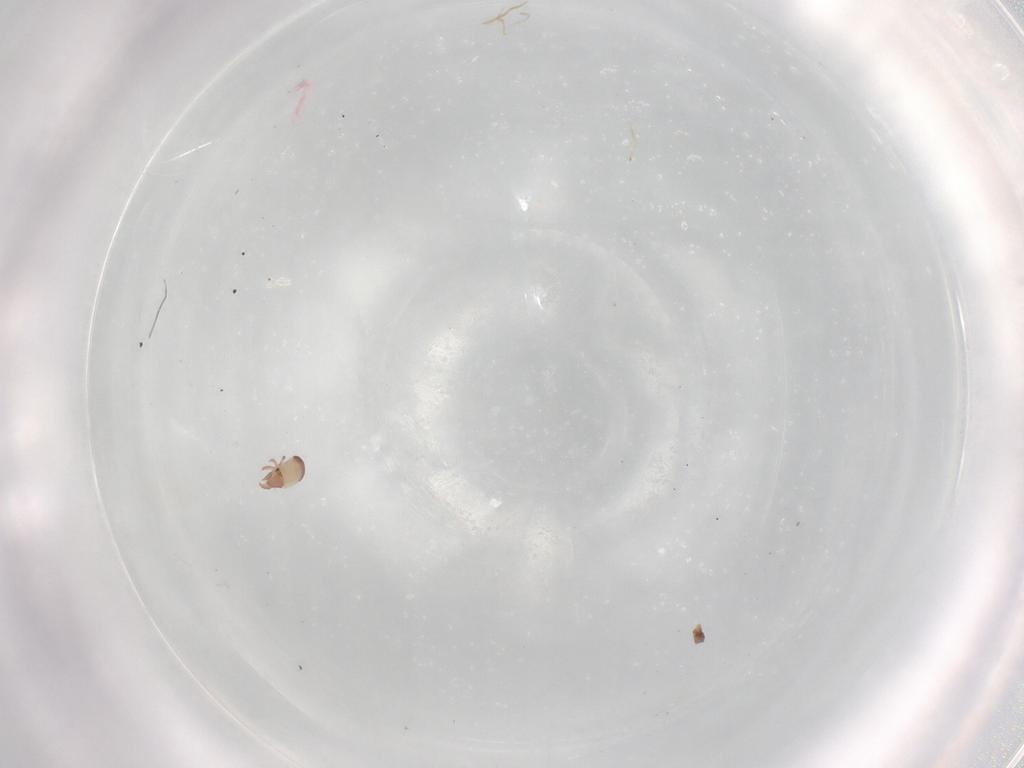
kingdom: Animalia
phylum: Arthropoda
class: Arachnida
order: Sarcoptiformes
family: Trhypochthoniidae
